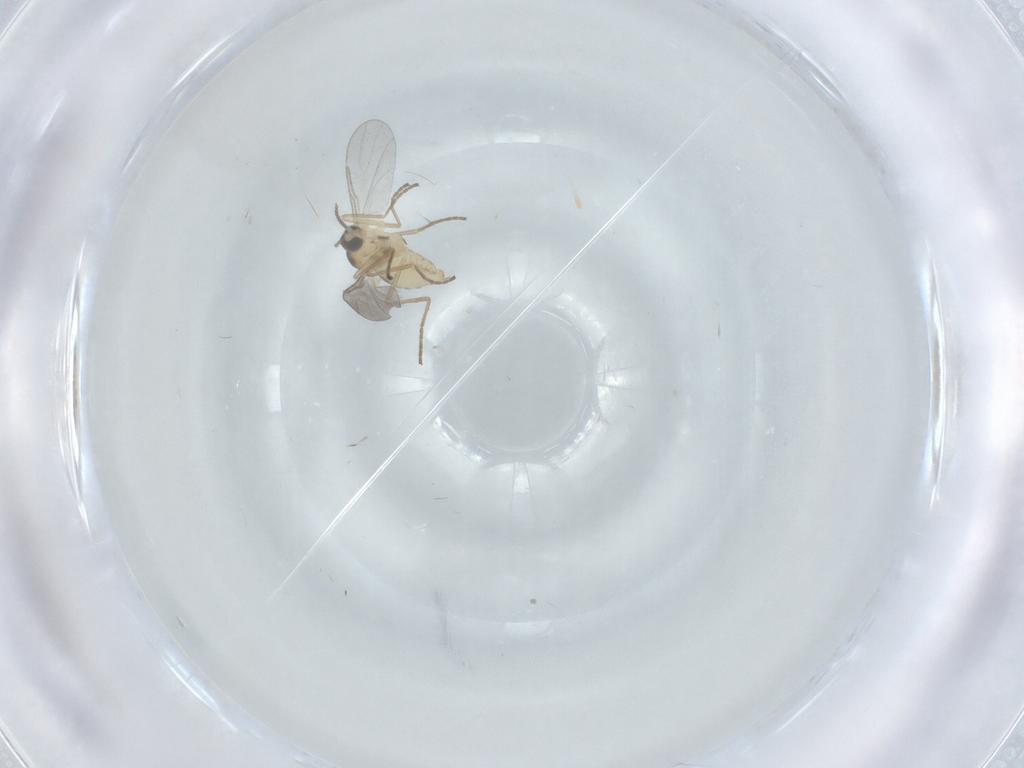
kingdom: Animalia
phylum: Arthropoda
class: Insecta
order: Diptera
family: Cecidomyiidae
